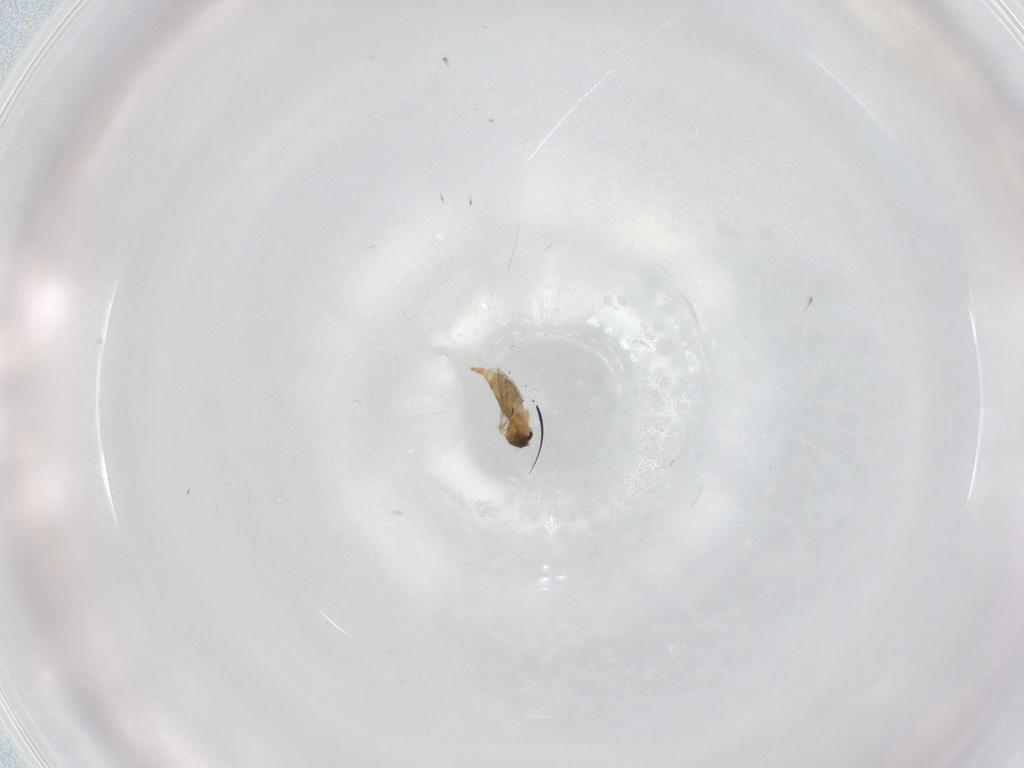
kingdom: Animalia
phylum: Arthropoda
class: Insecta
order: Diptera
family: Cecidomyiidae
